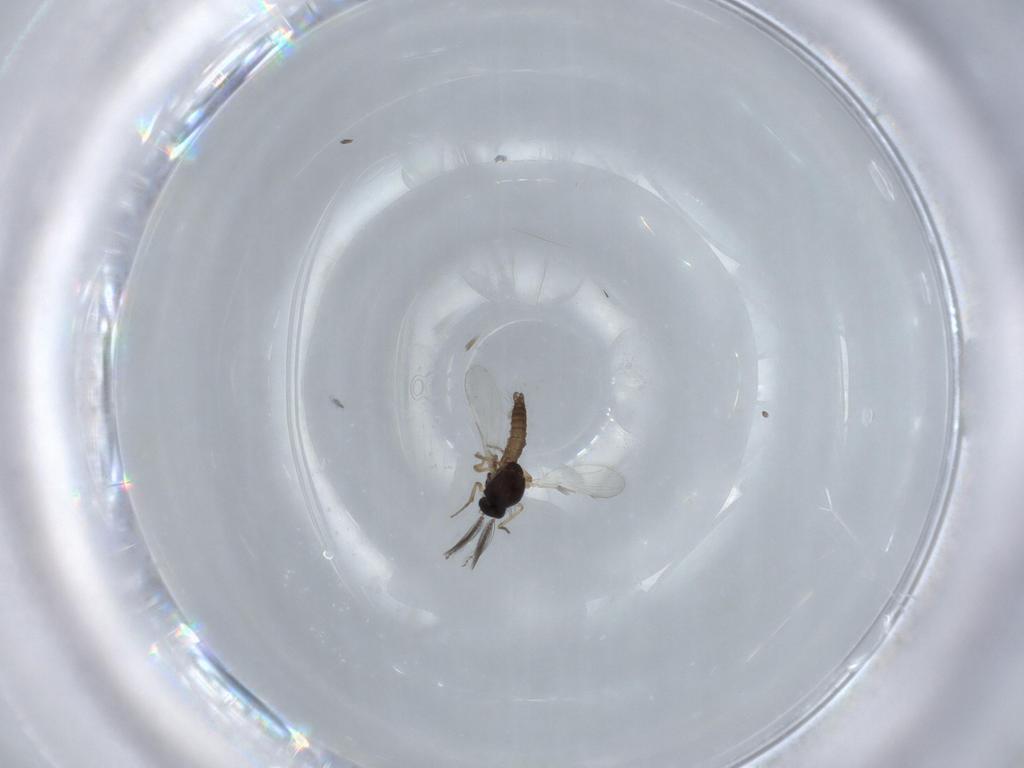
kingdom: Animalia
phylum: Arthropoda
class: Insecta
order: Diptera
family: Ceratopogonidae
